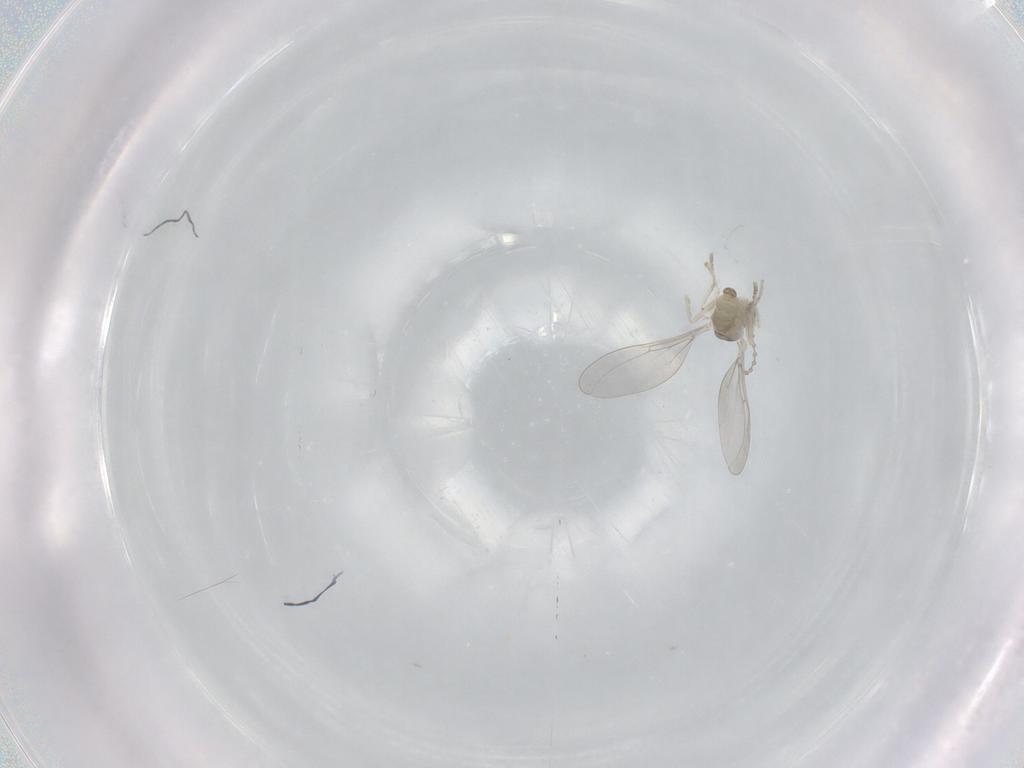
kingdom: Animalia
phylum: Arthropoda
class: Insecta
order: Diptera
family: Cecidomyiidae
